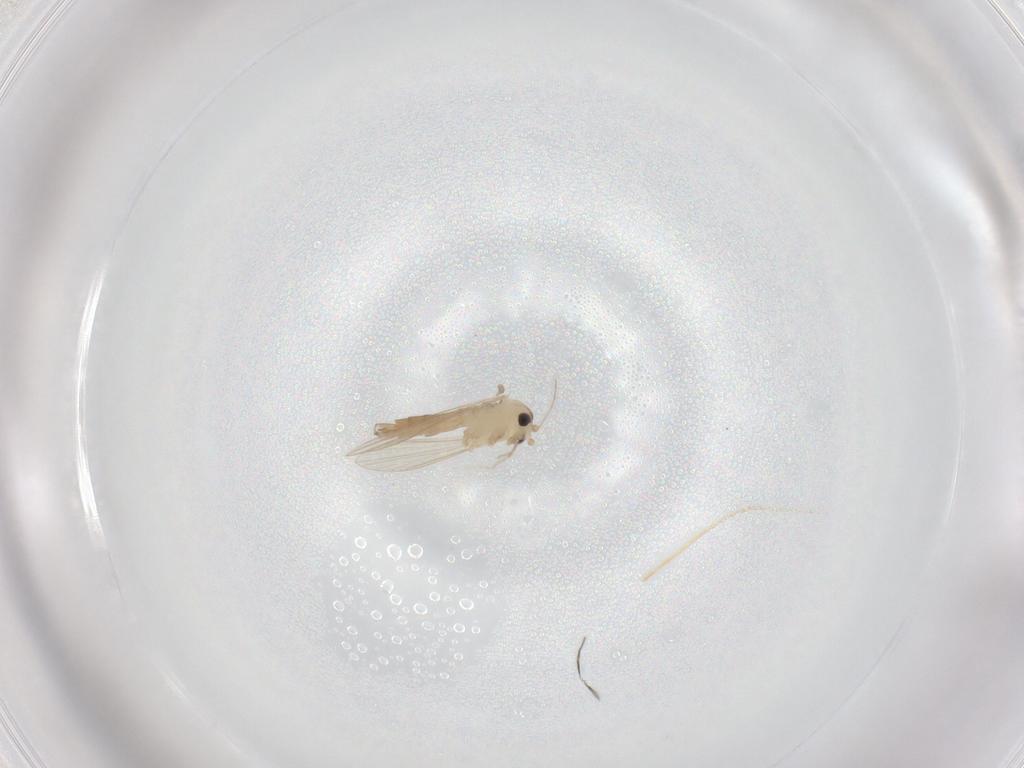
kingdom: Animalia
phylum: Arthropoda
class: Insecta
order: Diptera
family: Psychodidae
